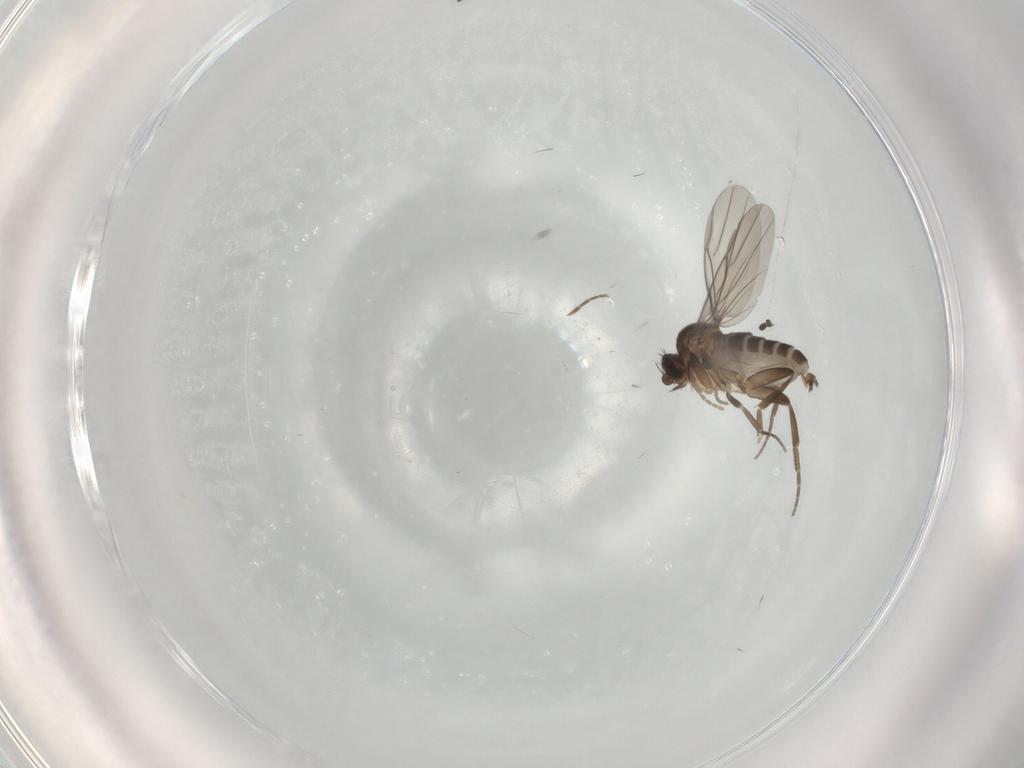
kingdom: Animalia
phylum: Arthropoda
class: Insecta
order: Diptera
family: Sciaridae
